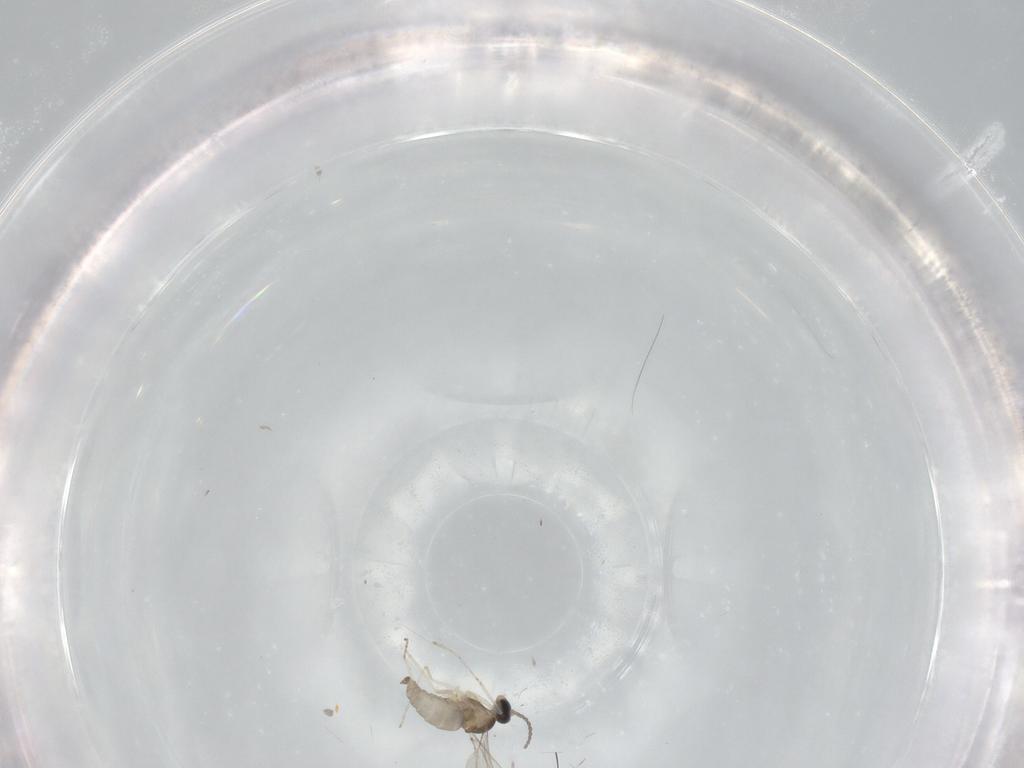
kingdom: Animalia
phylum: Arthropoda
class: Insecta
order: Diptera
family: Cecidomyiidae
